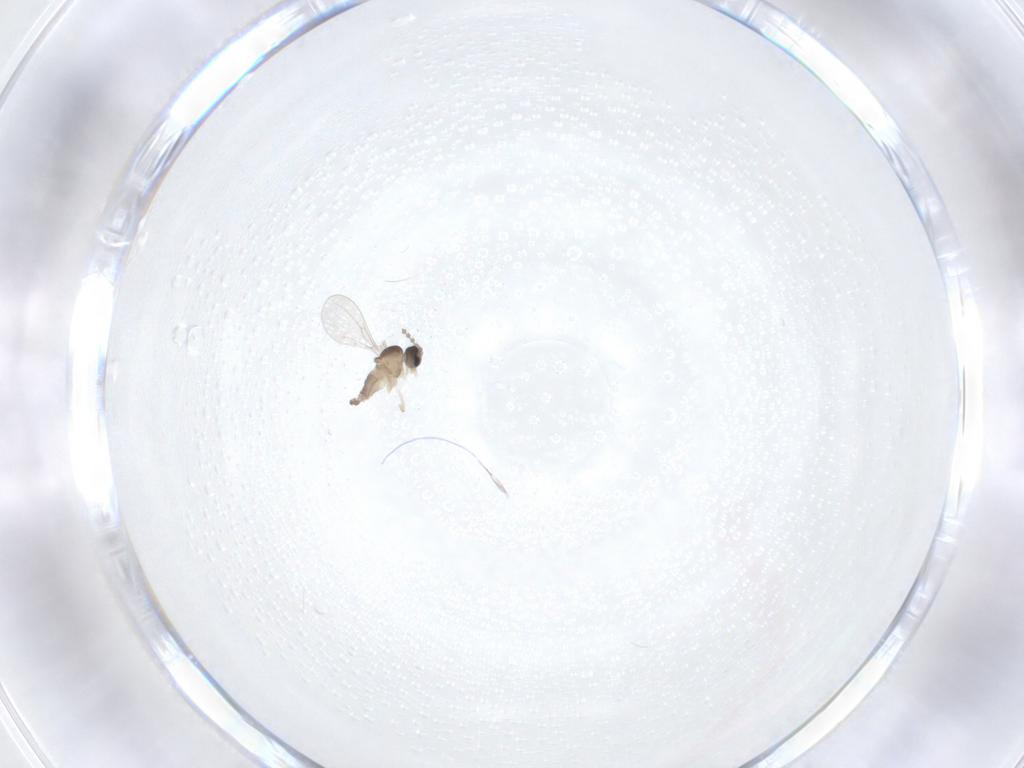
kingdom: Animalia
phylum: Arthropoda
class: Insecta
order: Diptera
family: Cecidomyiidae
